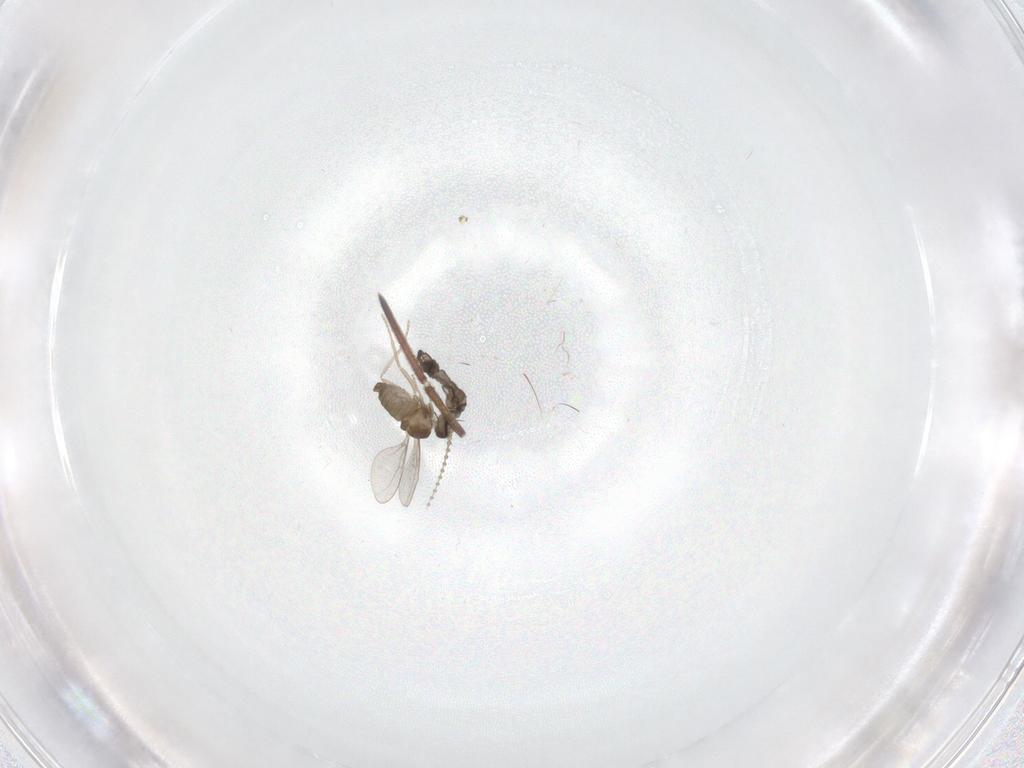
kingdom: Animalia
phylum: Arthropoda
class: Insecta
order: Diptera
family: Cecidomyiidae
